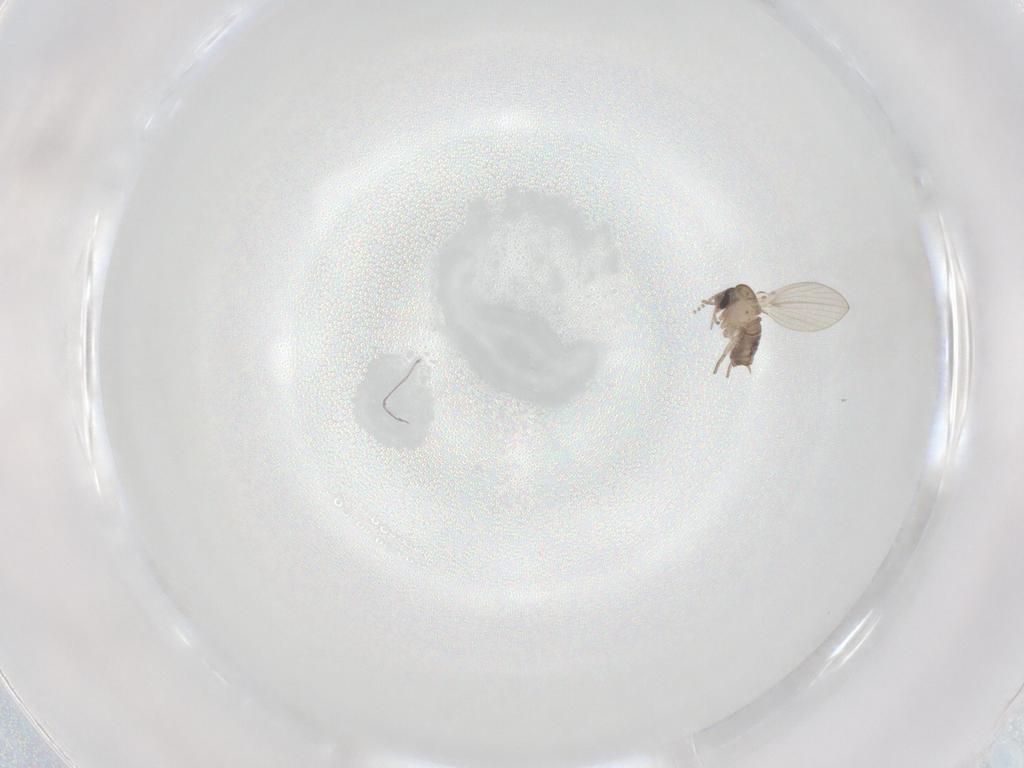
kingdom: Animalia
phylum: Arthropoda
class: Insecta
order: Diptera
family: Psychodidae
